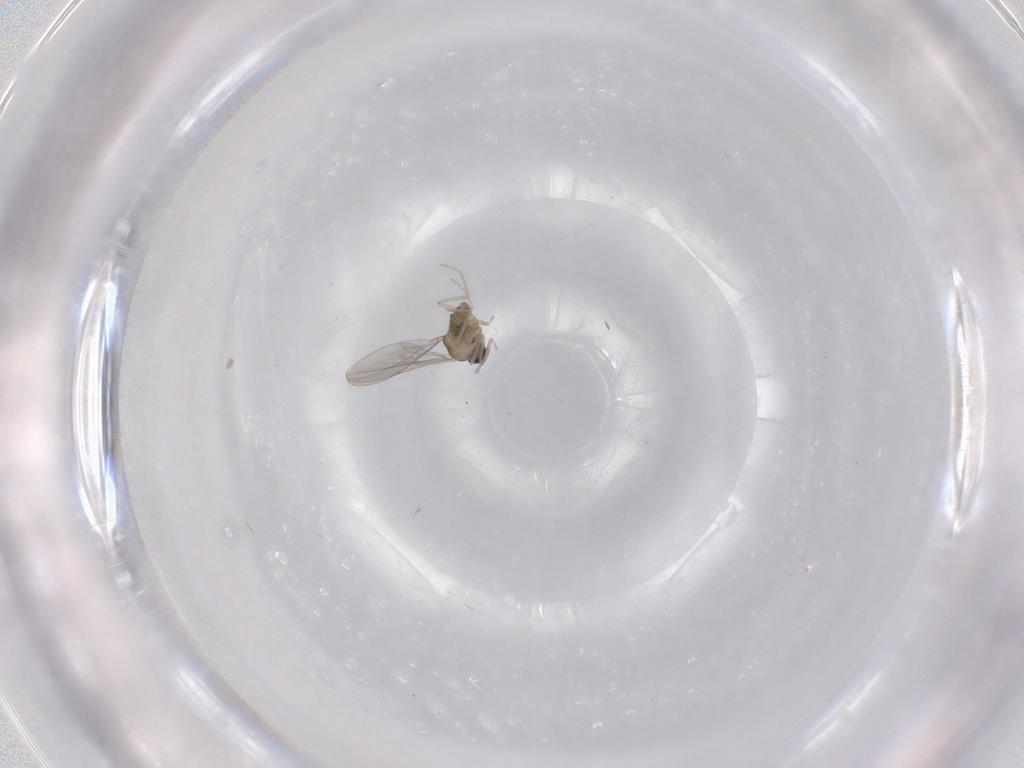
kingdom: Animalia
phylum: Arthropoda
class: Insecta
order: Diptera
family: Cecidomyiidae
